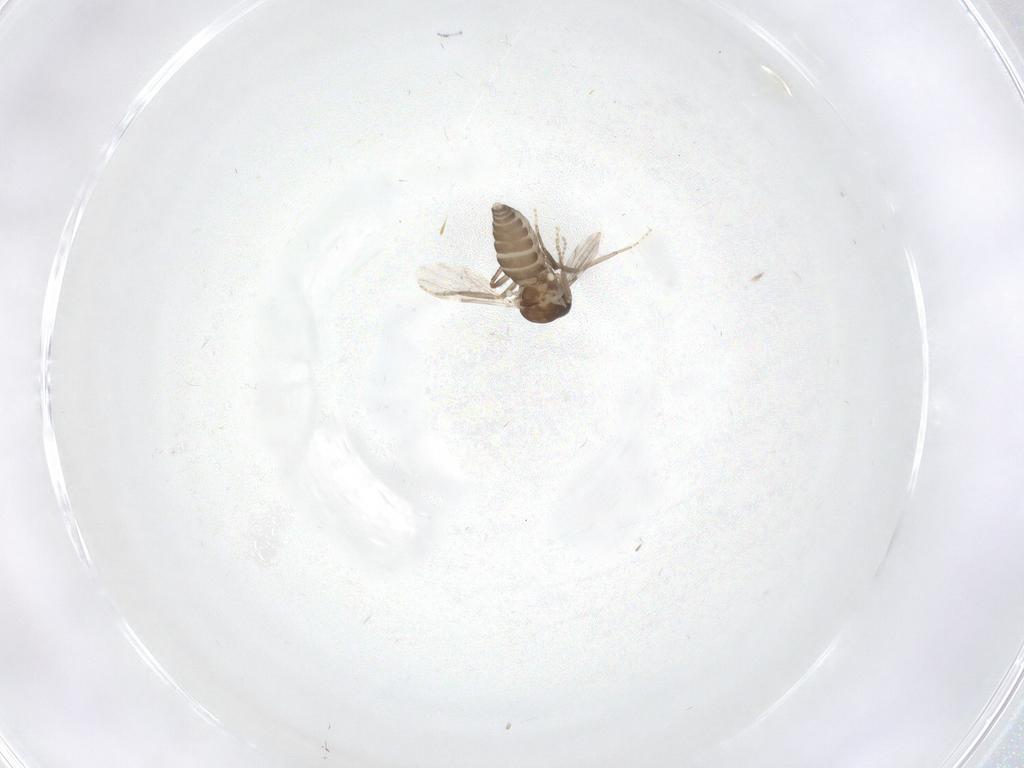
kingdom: Animalia
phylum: Arthropoda
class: Insecta
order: Diptera
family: Ceratopogonidae
